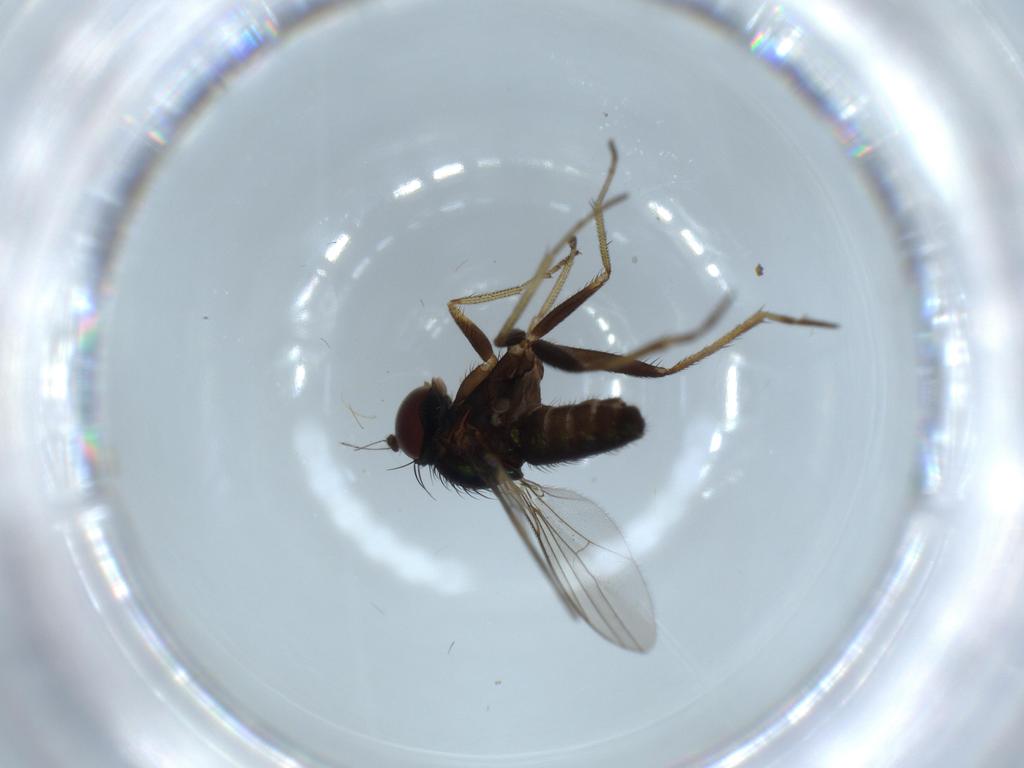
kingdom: Animalia
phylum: Arthropoda
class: Insecta
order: Diptera
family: Dolichopodidae
